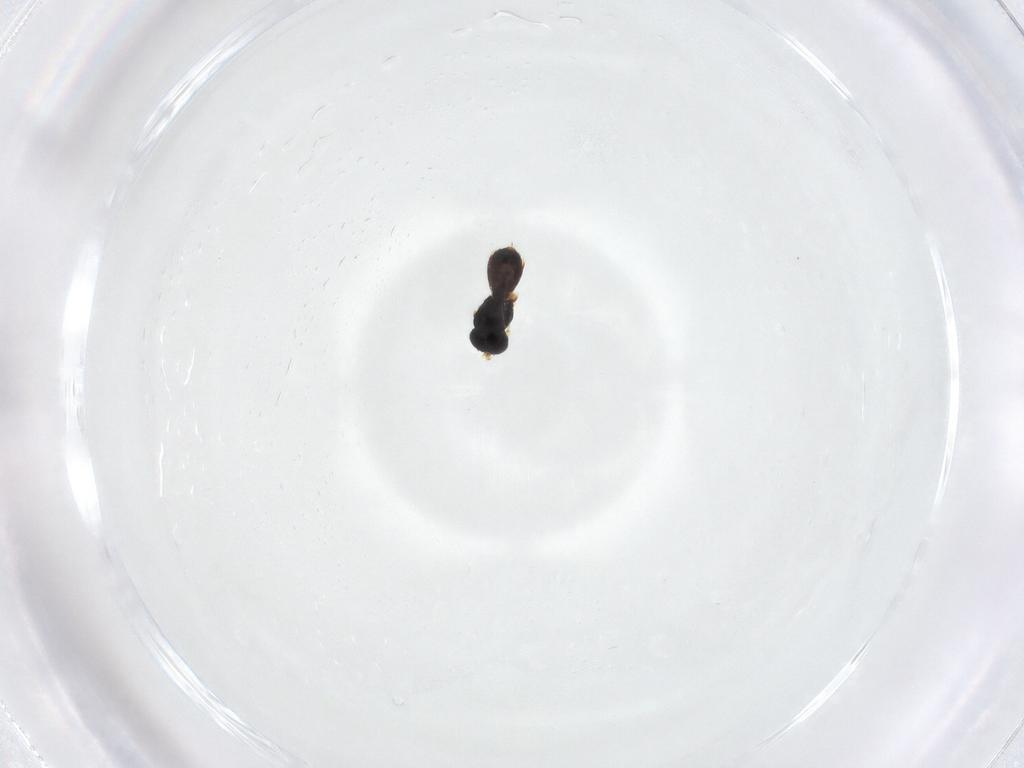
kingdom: Animalia
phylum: Arthropoda
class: Insecta
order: Hymenoptera
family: Scelionidae
